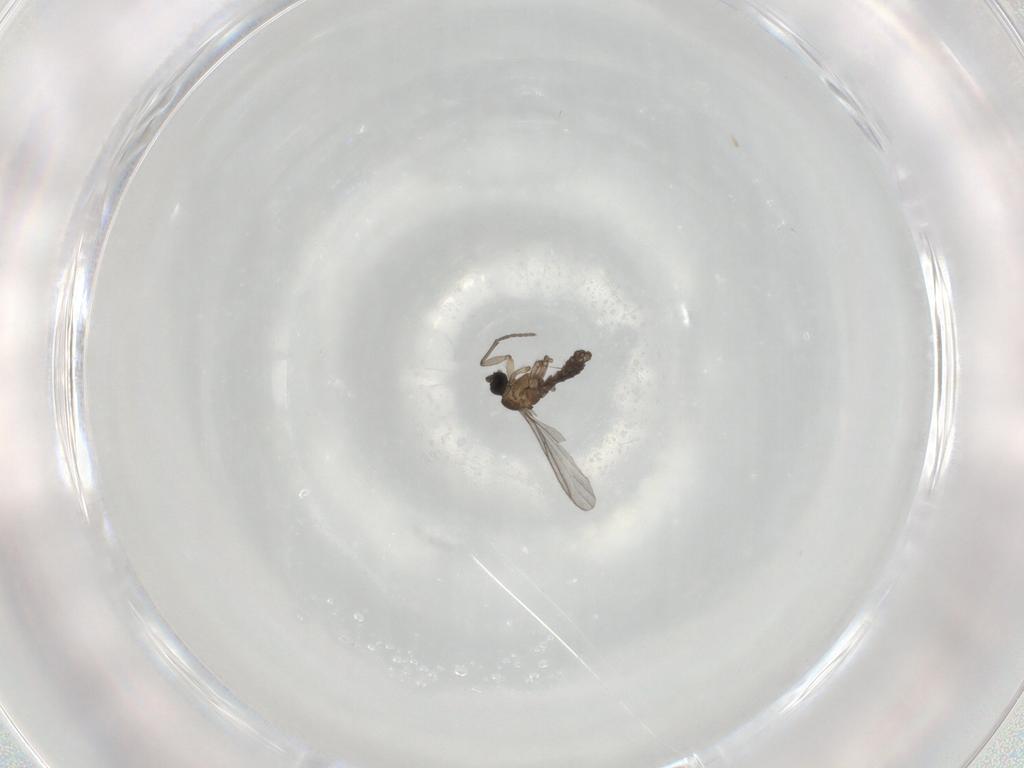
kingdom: Animalia
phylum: Arthropoda
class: Insecta
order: Diptera
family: Sciaridae
